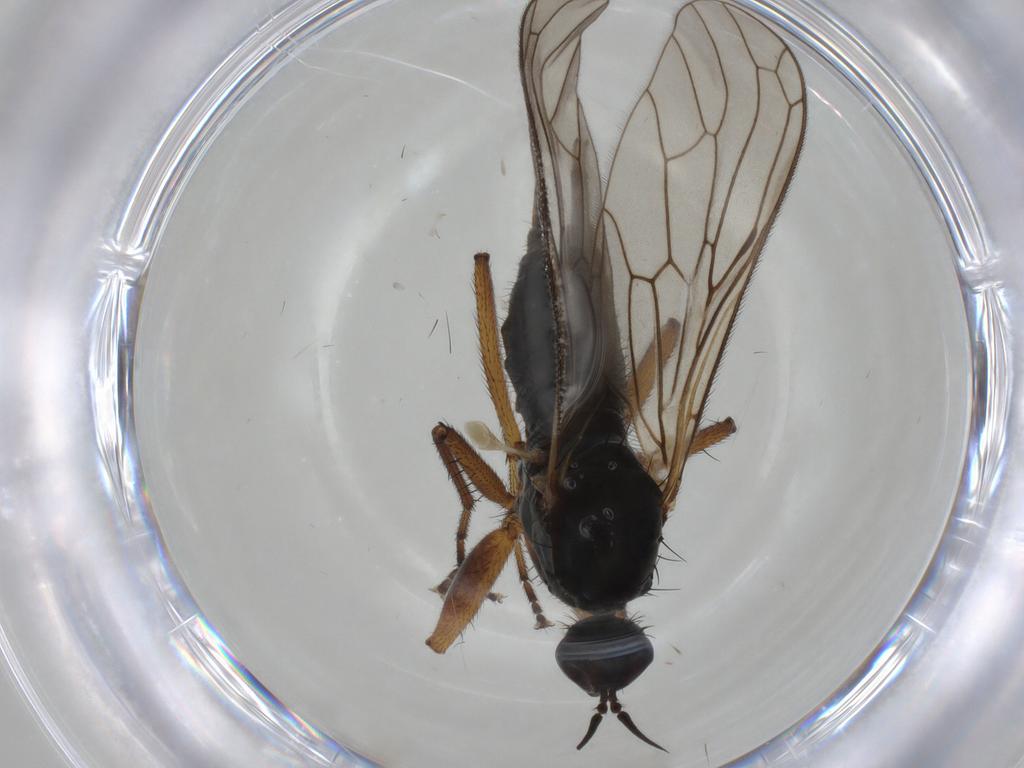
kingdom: Animalia
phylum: Arthropoda
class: Insecta
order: Diptera
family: Empididae
